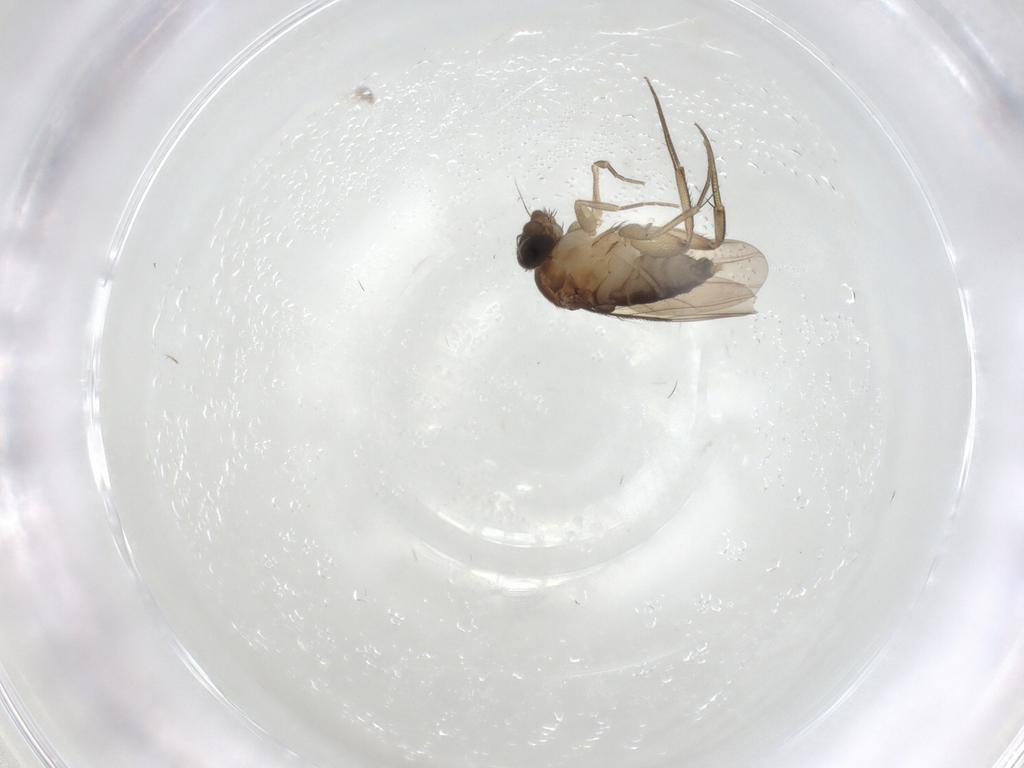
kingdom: Animalia
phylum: Arthropoda
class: Insecta
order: Diptera
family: Phoridae
